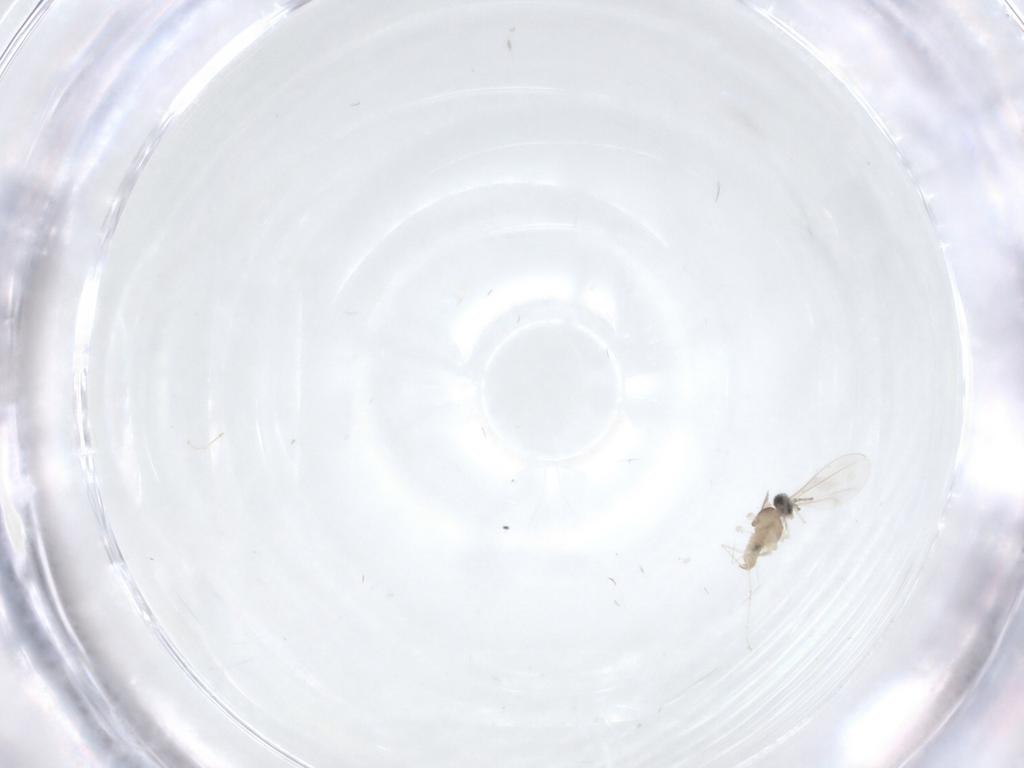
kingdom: Animalia
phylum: Arthropoda
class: Insecta
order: Diptera
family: Cecidomyiidae
